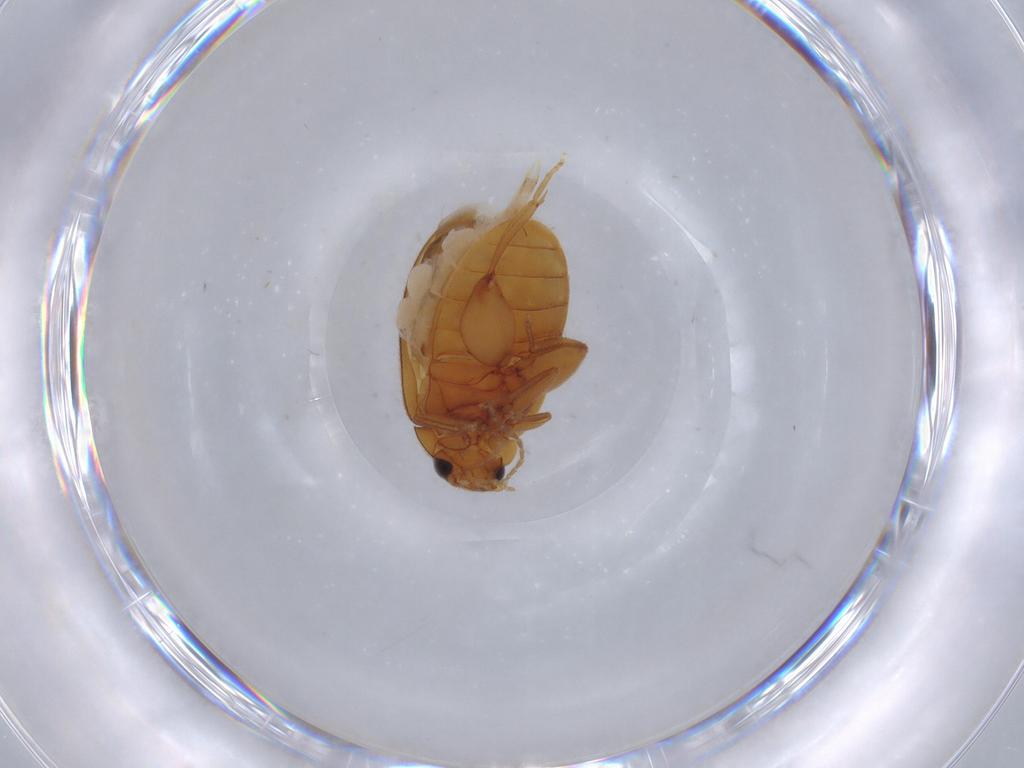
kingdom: Animalia
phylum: Arthropoda
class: Insecta
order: Coleoptera
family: Scirtidae
